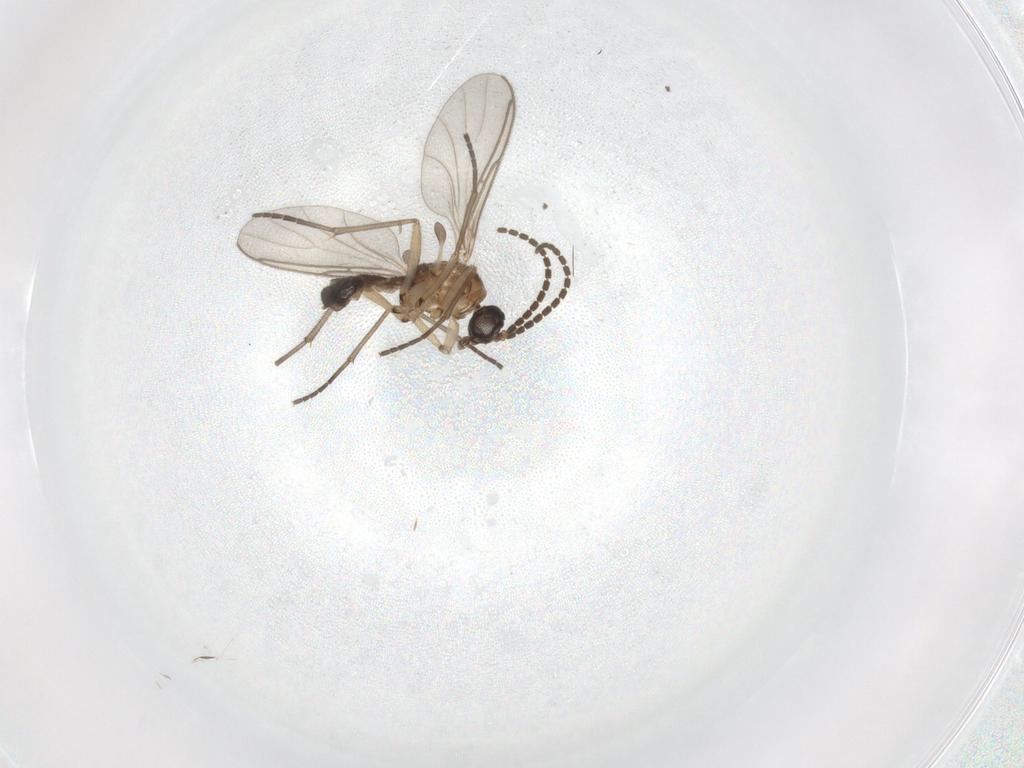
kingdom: Animalia
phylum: Arthropoda
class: Insecta
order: Diptera
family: Sciaridae
